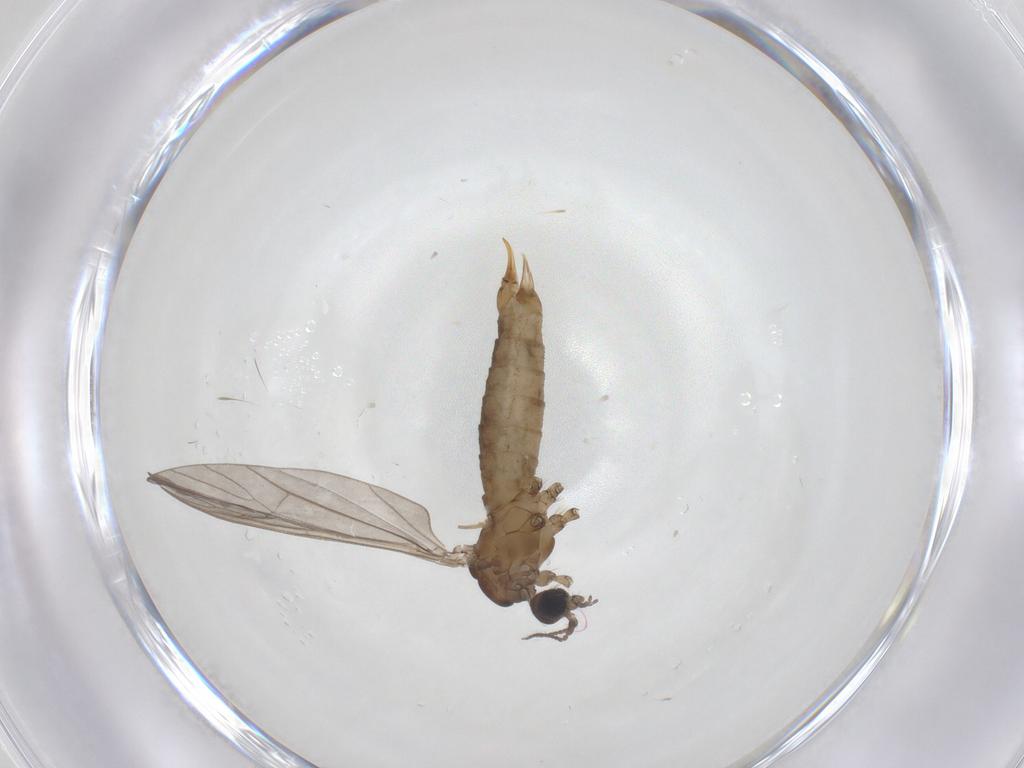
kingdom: Animalia
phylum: Arthropoda
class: Insecta
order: Diptera
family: Limoniidae
